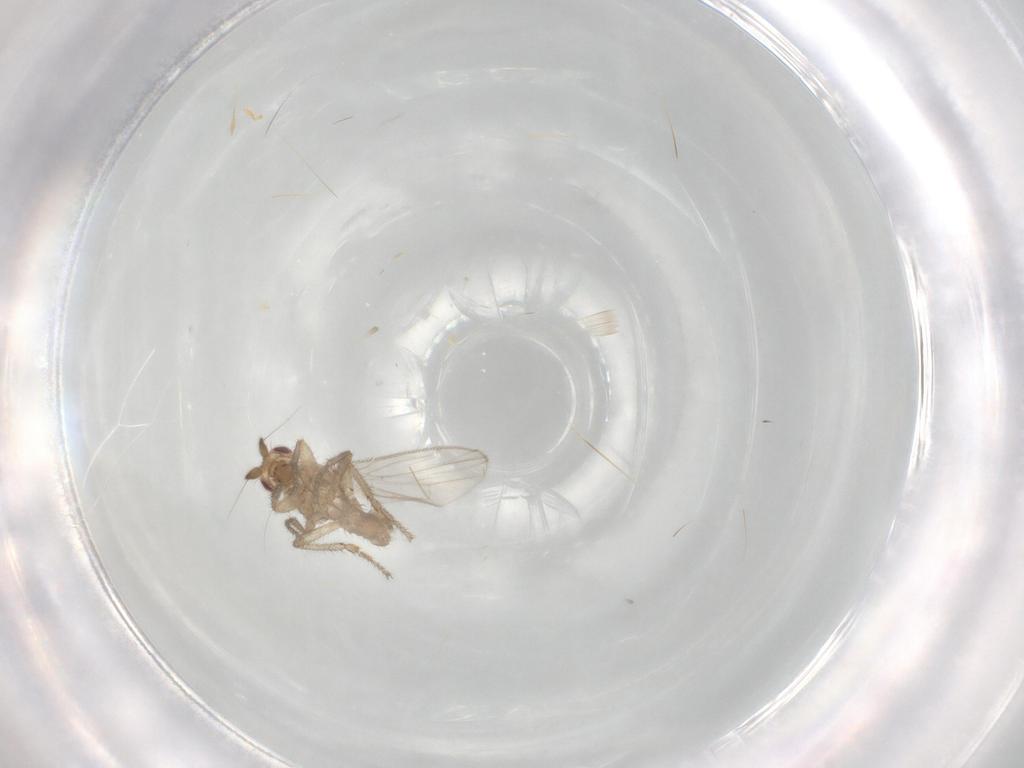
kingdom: Animalia
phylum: Arthropoda
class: Insecta
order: Diptera
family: Sphaeroceridae
